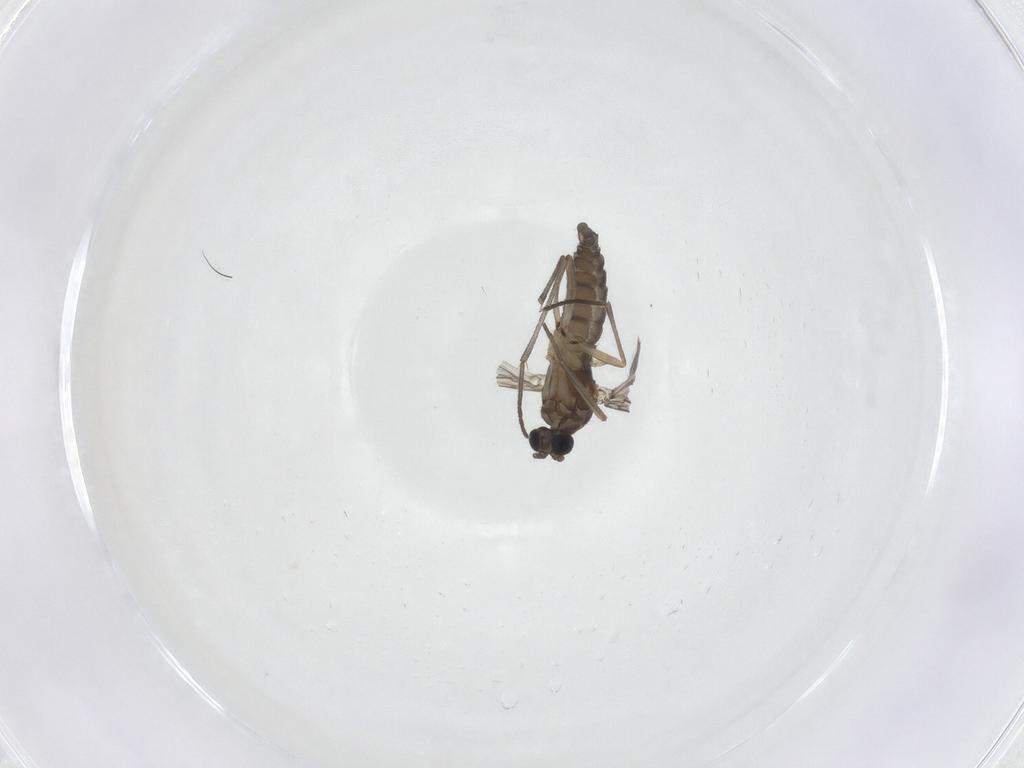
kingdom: Animalia
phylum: Arthropoda
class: Insecta
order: Diptera
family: Sciaridae
